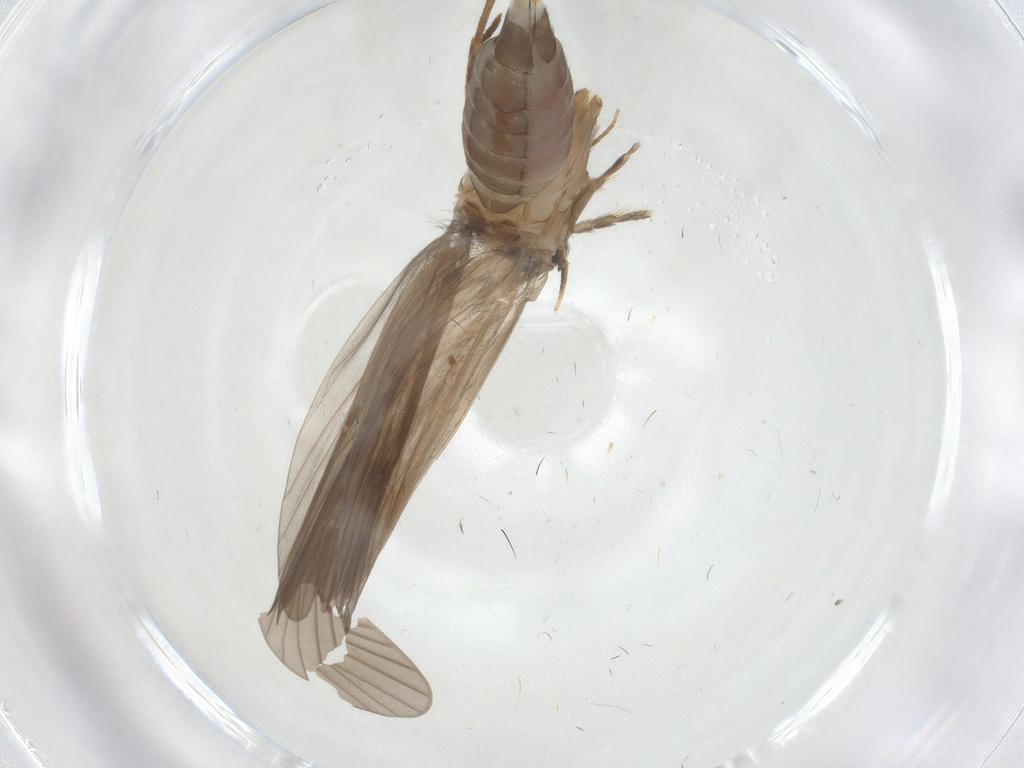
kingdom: Animalia
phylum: Arthropoda
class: Insecta
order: Trichoptera
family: Philopotamidae
